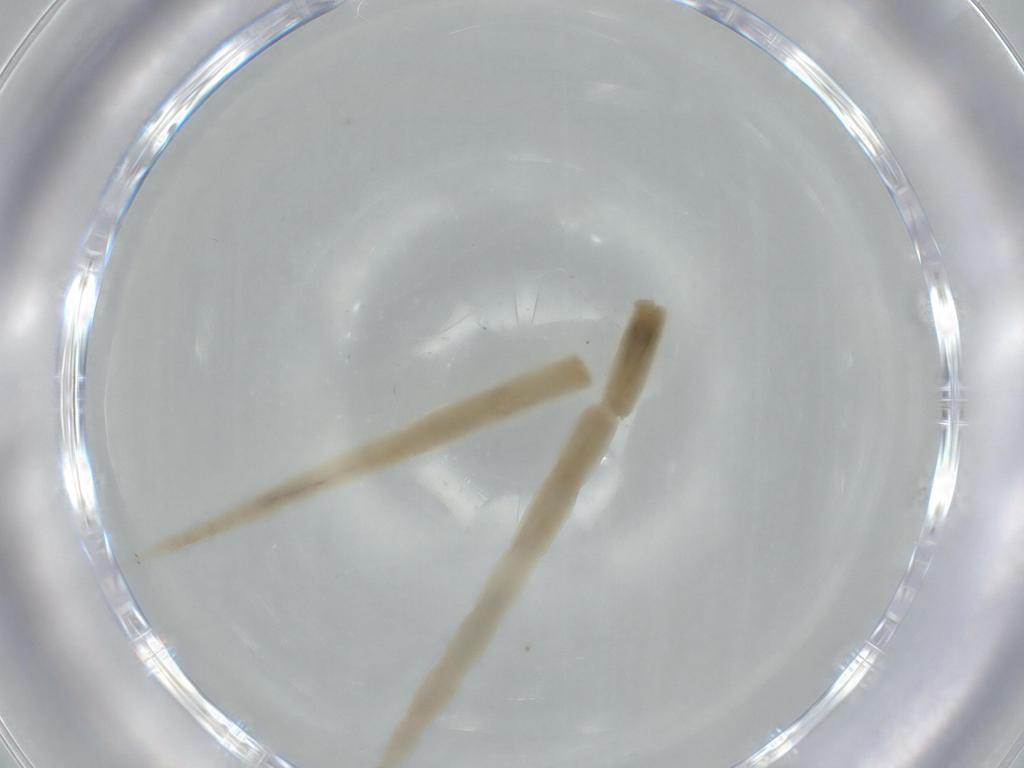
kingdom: Animalia
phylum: Arthropoda
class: Insecta
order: Diptera
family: Ceratopogonidae
